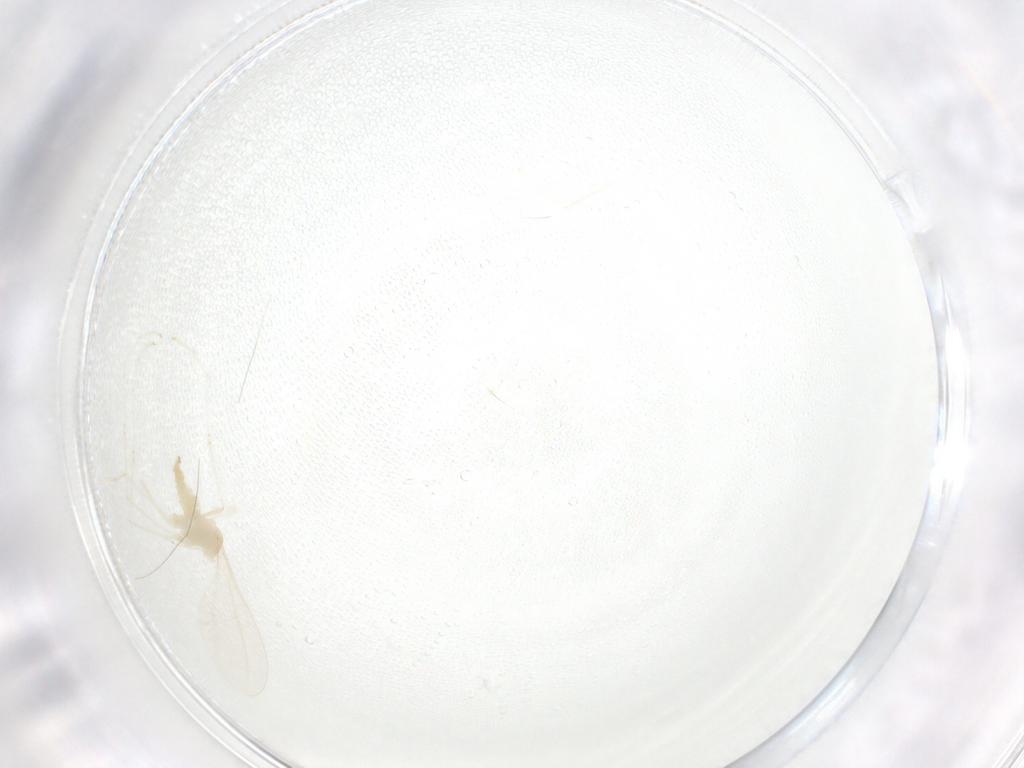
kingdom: Animalia
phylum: Arthropoda
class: Insecta
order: Diptera
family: Cecidomyiidae
